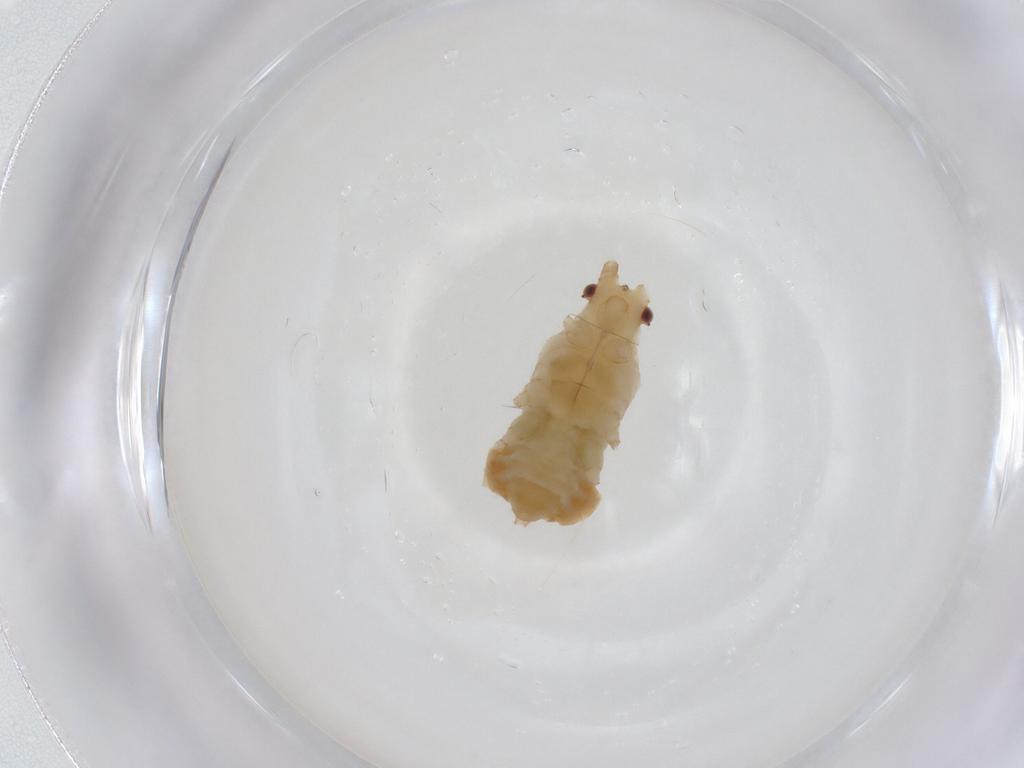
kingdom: Animalia
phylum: Arthropoda
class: Insecta
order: Hemiptera
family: Aphididae
